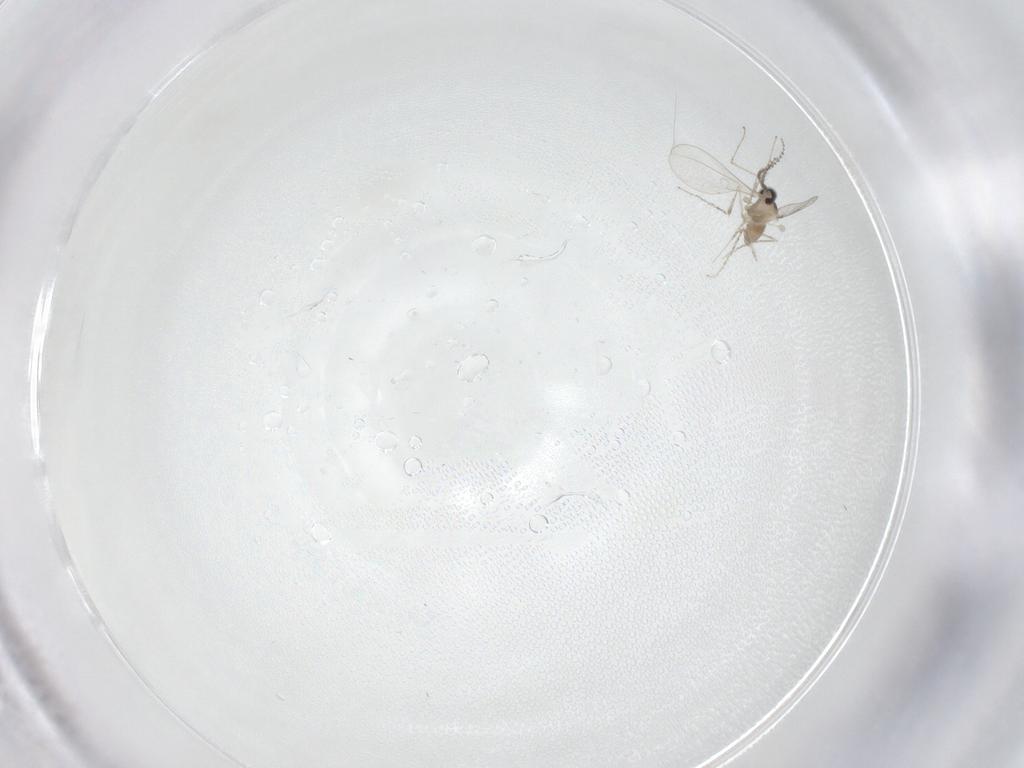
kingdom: Animalia
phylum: Arthropoda
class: Insecta
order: Diptera
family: Cecidomyiidae
